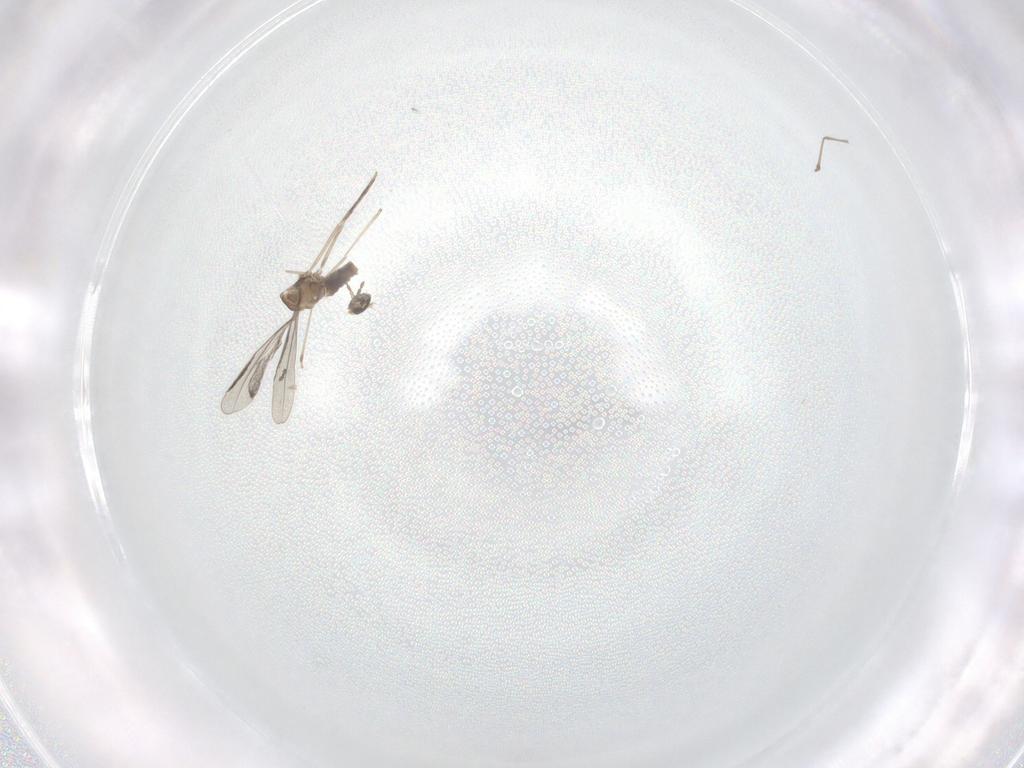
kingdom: Animalia
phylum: Arthropoda
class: Insecta
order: Diptera
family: Cecidomyiidae
